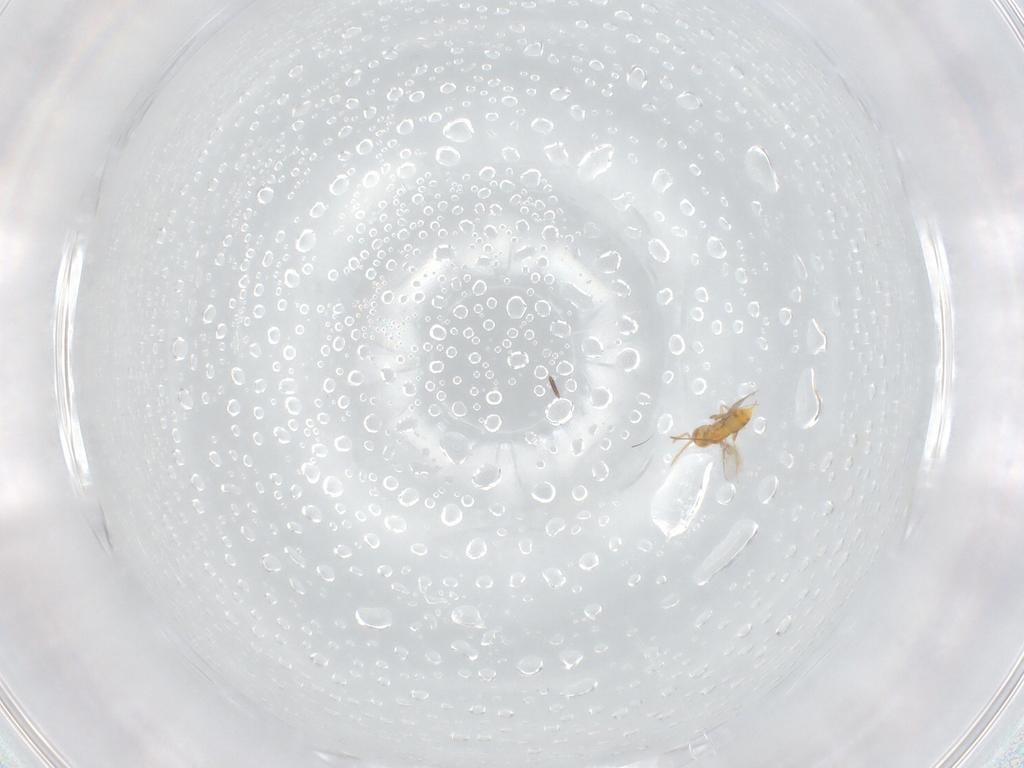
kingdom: Animalia
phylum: Arthropoda
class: Insecta
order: Hymenoptera
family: Aphelinidae
